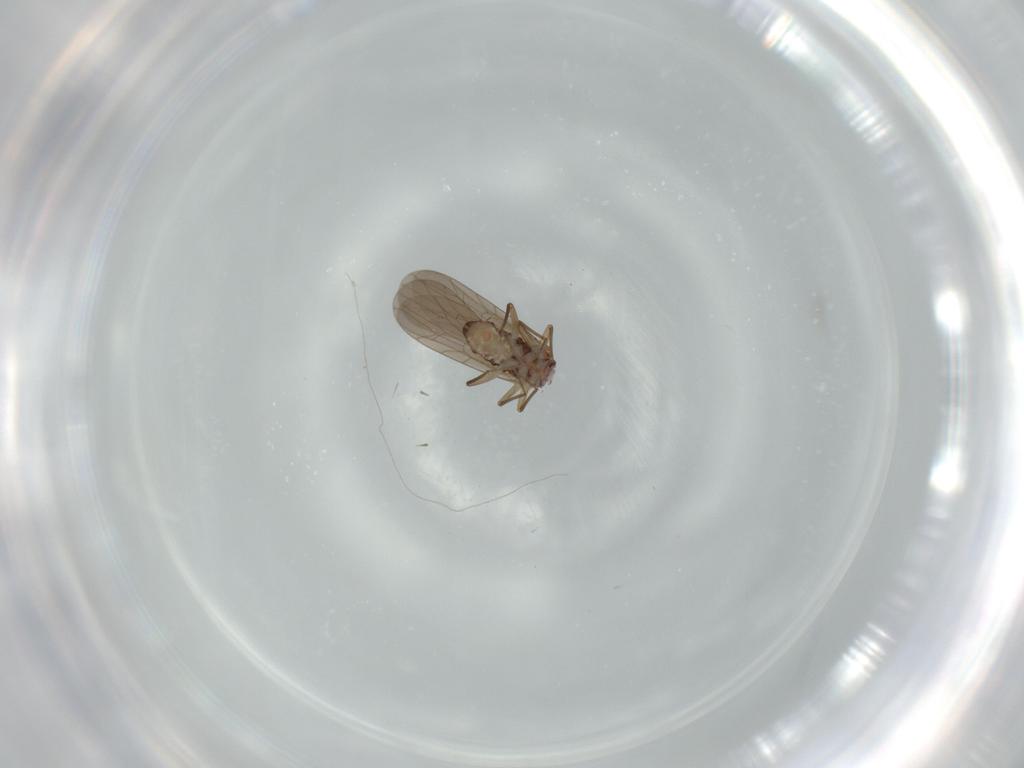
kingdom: Animalia
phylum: Arthropoda
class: Insecta
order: Psocodea
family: Lepidopsocidae
